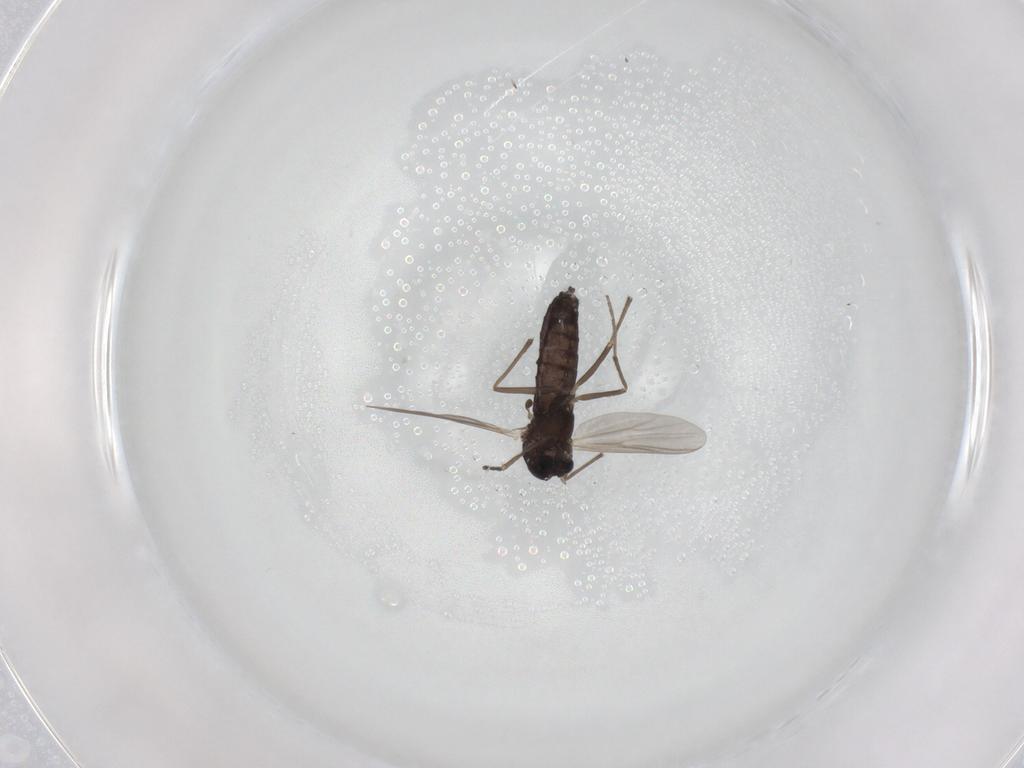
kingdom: Animalia
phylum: Arthropoda
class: Insecta
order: Diptera
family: Chironomidae
